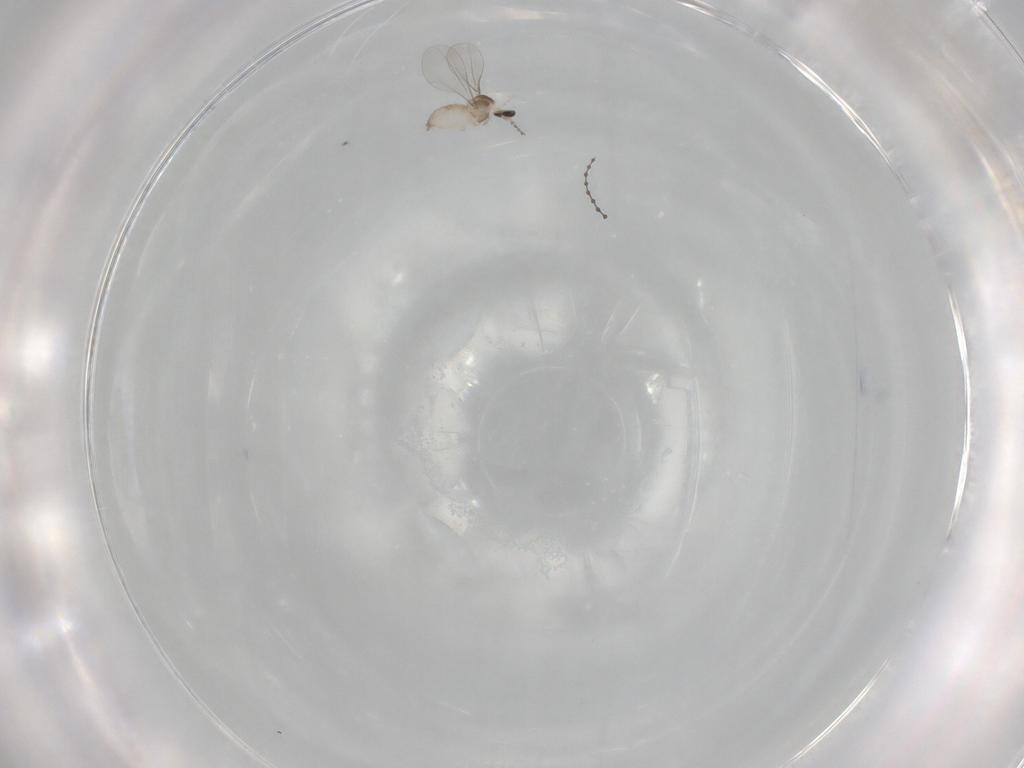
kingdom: Animalia
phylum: Arthropoda
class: Insecta
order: Diptera
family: Cecidomyiidae
